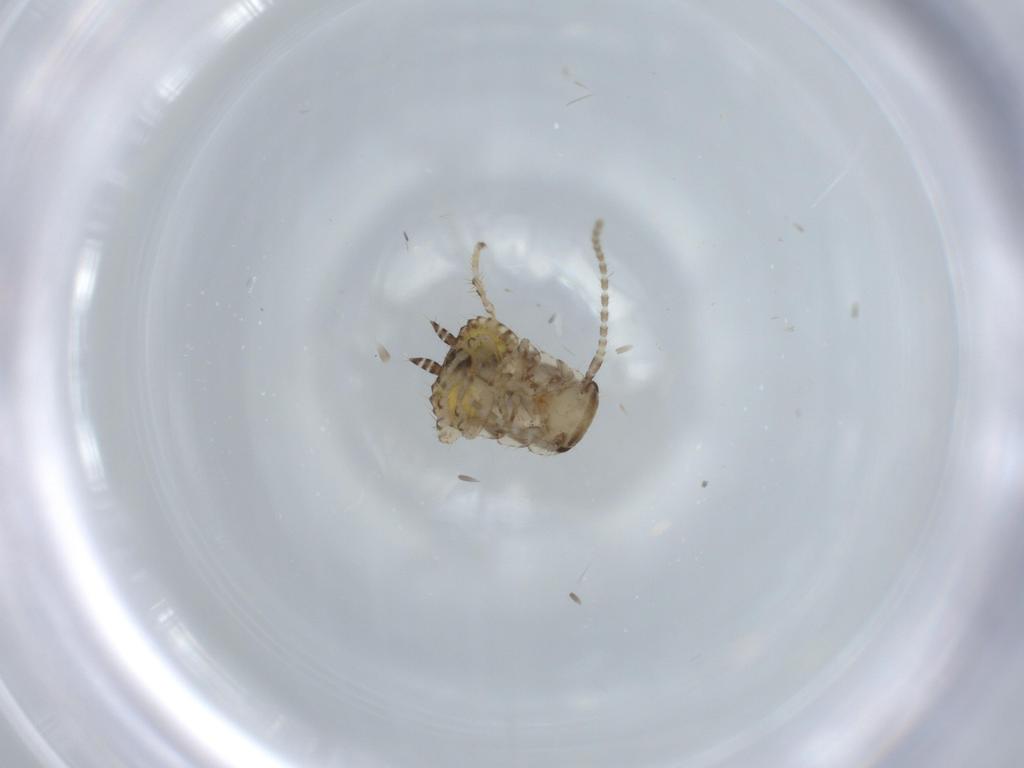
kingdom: Animalia
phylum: Arthropoda
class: Insecta
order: Blattodea
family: Ectobiidae
